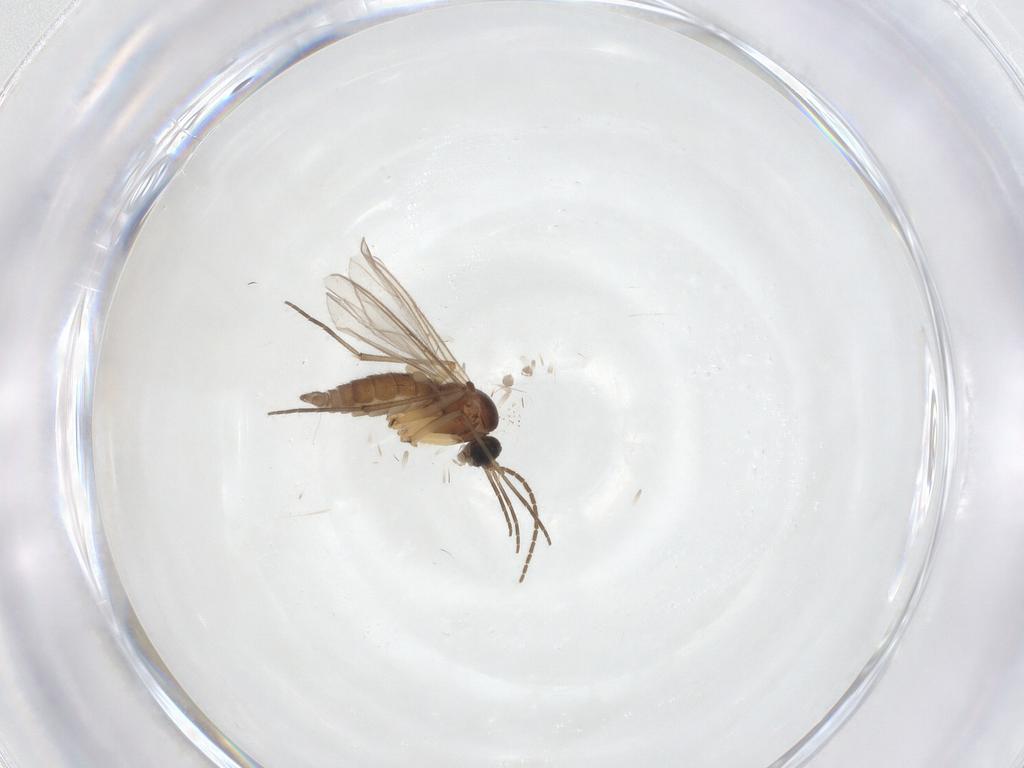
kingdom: Animalia
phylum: Arthropoda
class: Insecta
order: Diptera
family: Sciaridae
